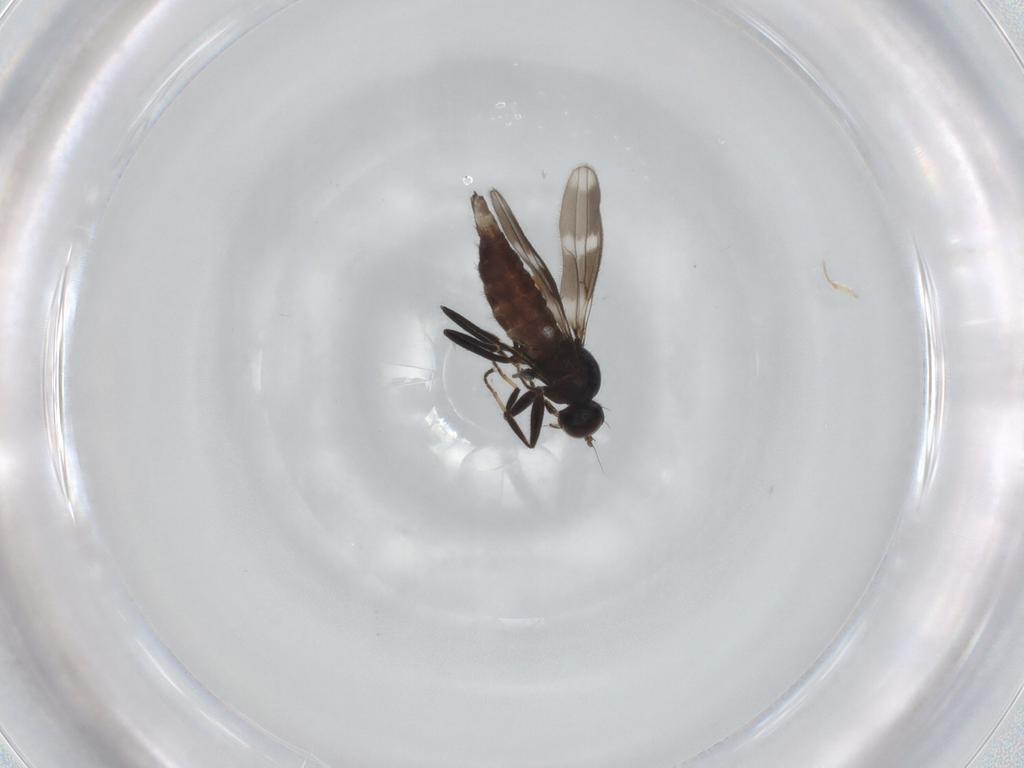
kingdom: Animalia
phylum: Arthropoda
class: Insecta
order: Diptera
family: Hybotidae
